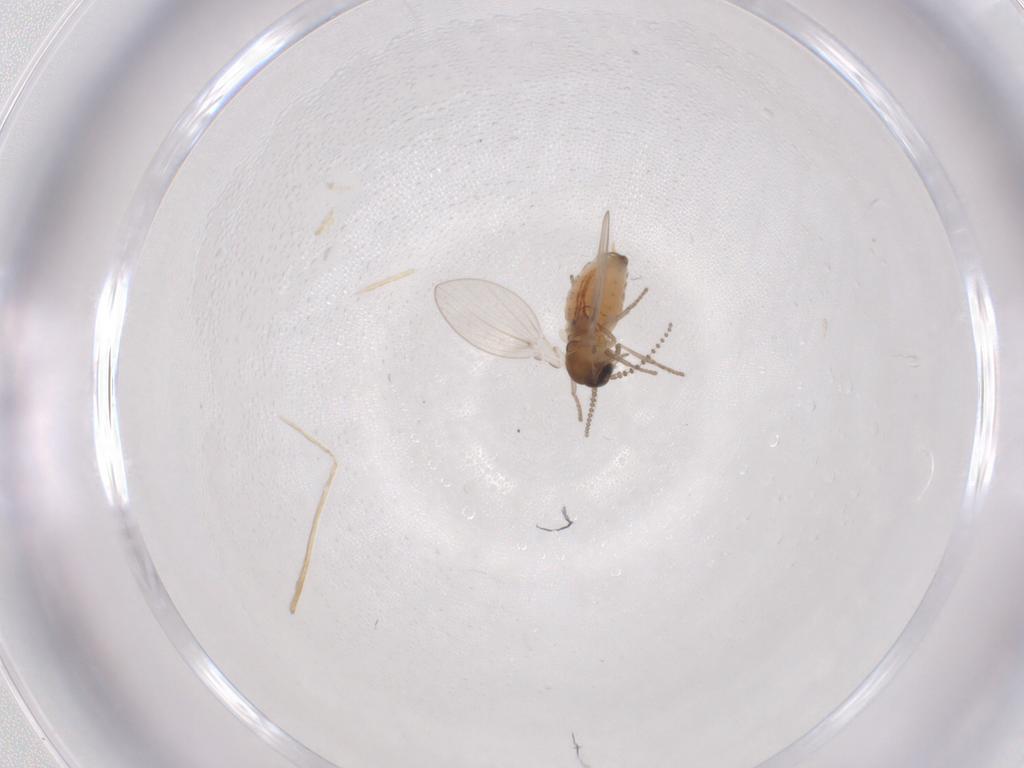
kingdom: Animalia
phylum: Arthropoda
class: Insecta
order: Diptera
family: Psychodidae
